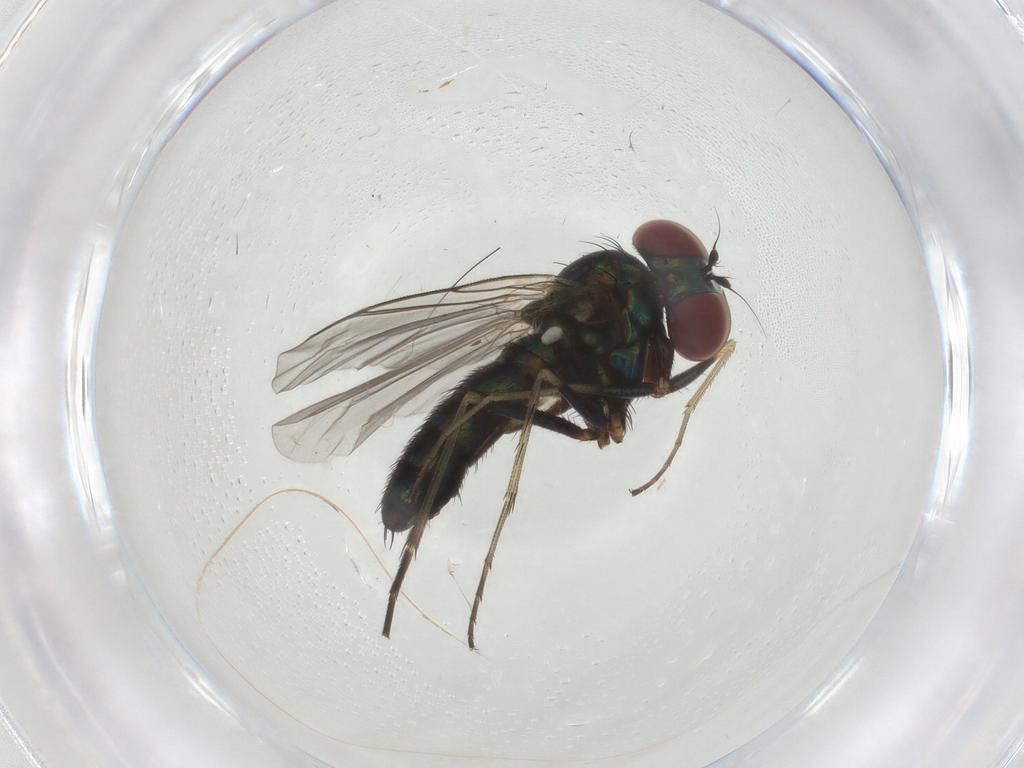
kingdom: Animalia
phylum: Arthropoda
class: Insecta
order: Diptera
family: Dolichopodidae
